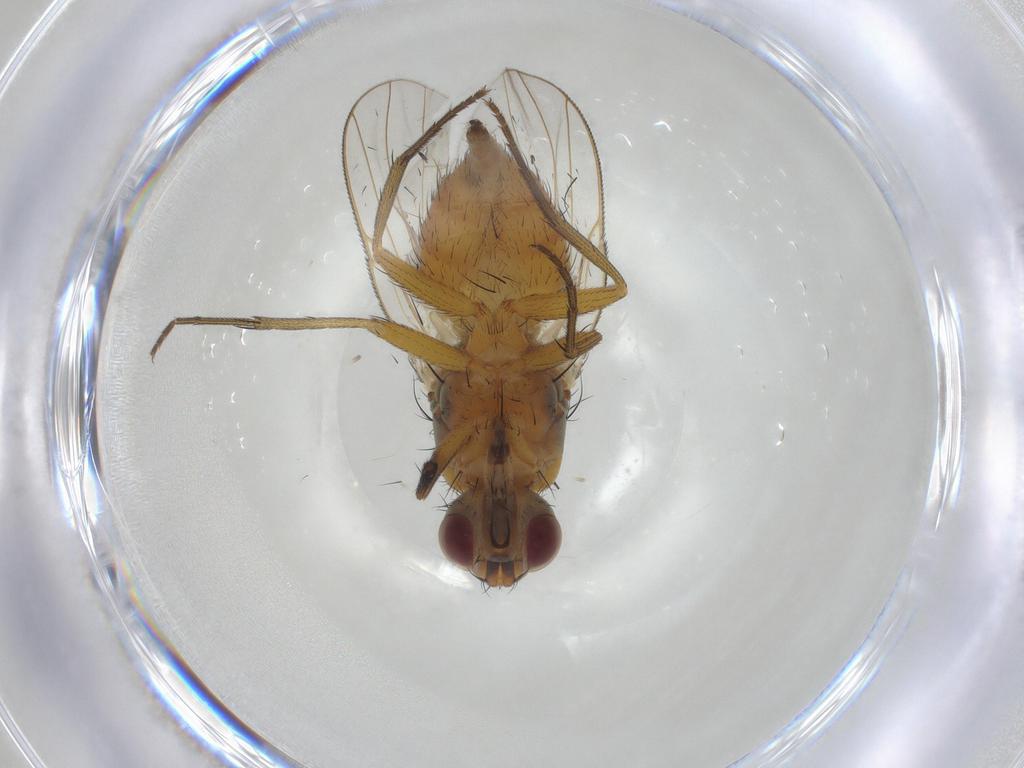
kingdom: Animalia
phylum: Arthropoda
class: Insecta
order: Diptera
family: Muscidae
